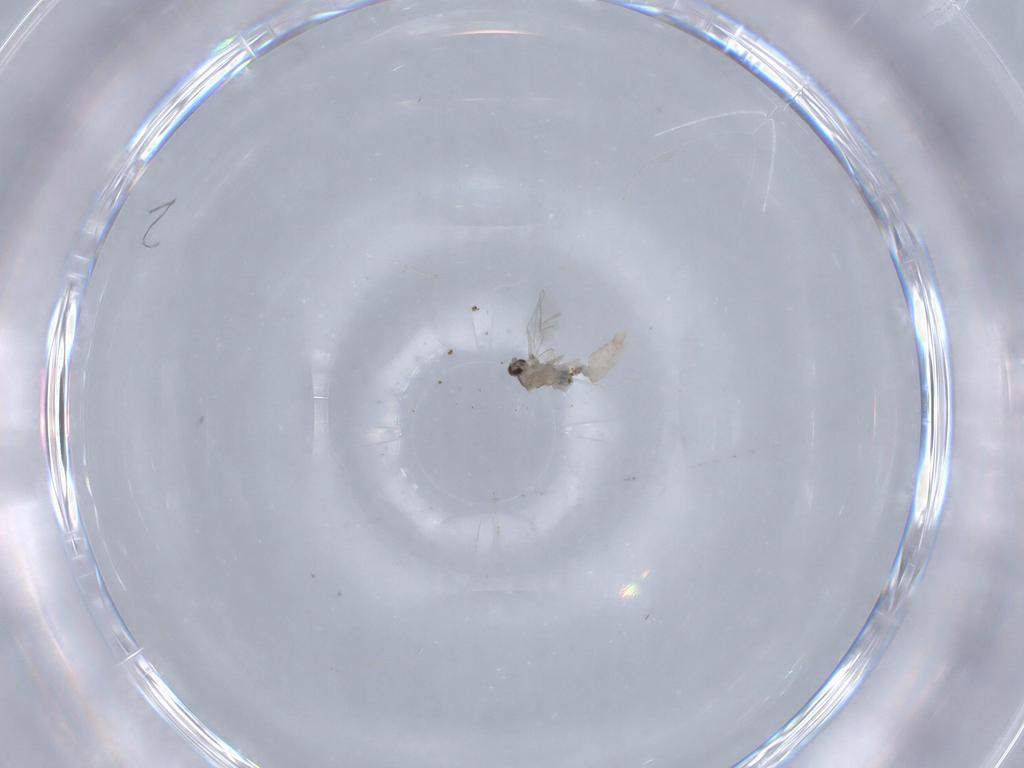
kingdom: Animalia
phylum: Arthropoda
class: Insecta
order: Diptera
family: Cecidomyiidae
